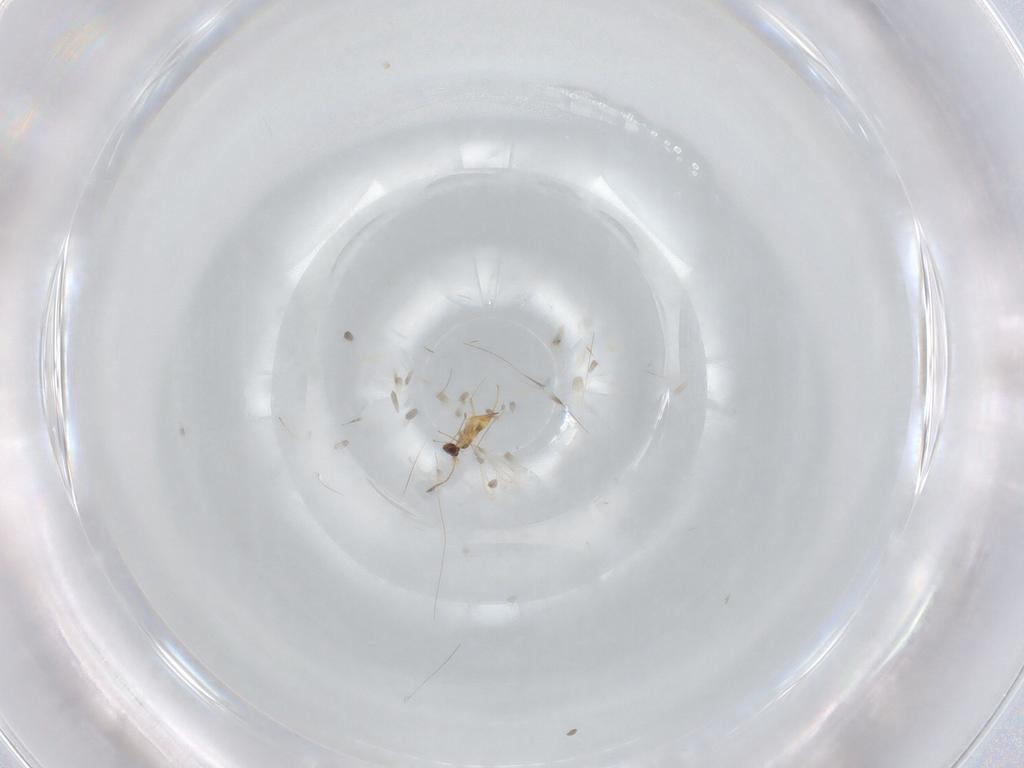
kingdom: Animalia
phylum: Arthropoda
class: Insecta
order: Hymenoptera
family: Mymaridae
